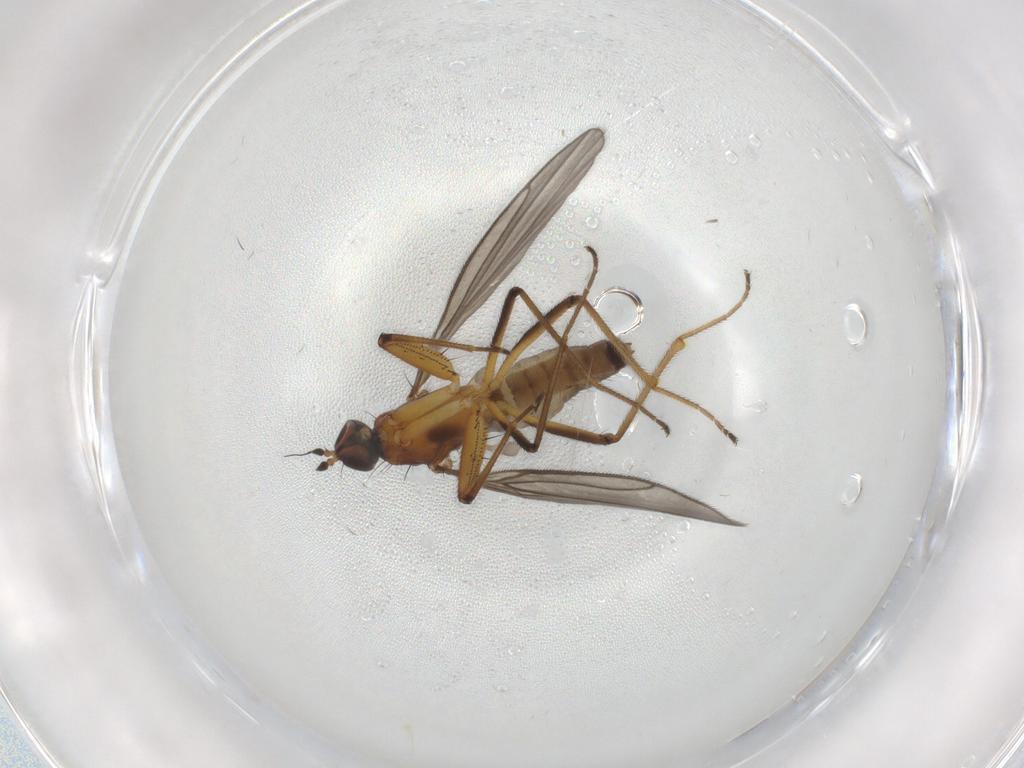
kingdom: Animalia
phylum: Arthropoda
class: Insecta
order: Diptera
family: Empididae
